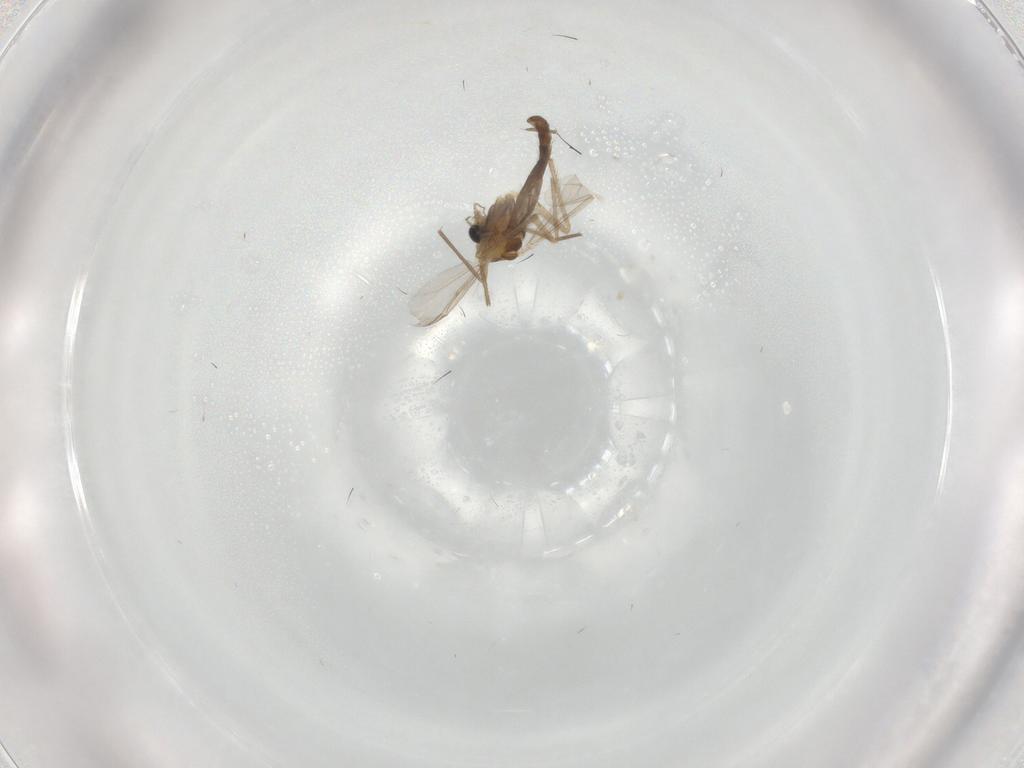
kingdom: Animalia
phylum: Arthropoda
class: Insecta
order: Diptera
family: Chironomidae
